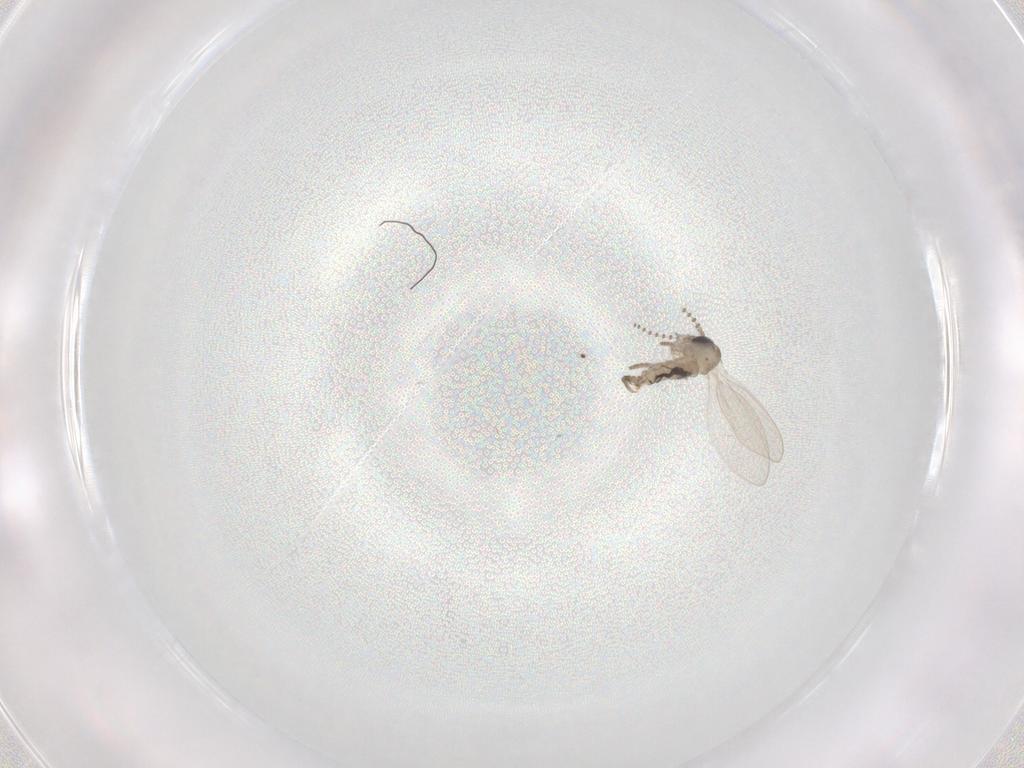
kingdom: Animalia
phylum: Arthropoda
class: Insecta
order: Diptera
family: Psychodidae
